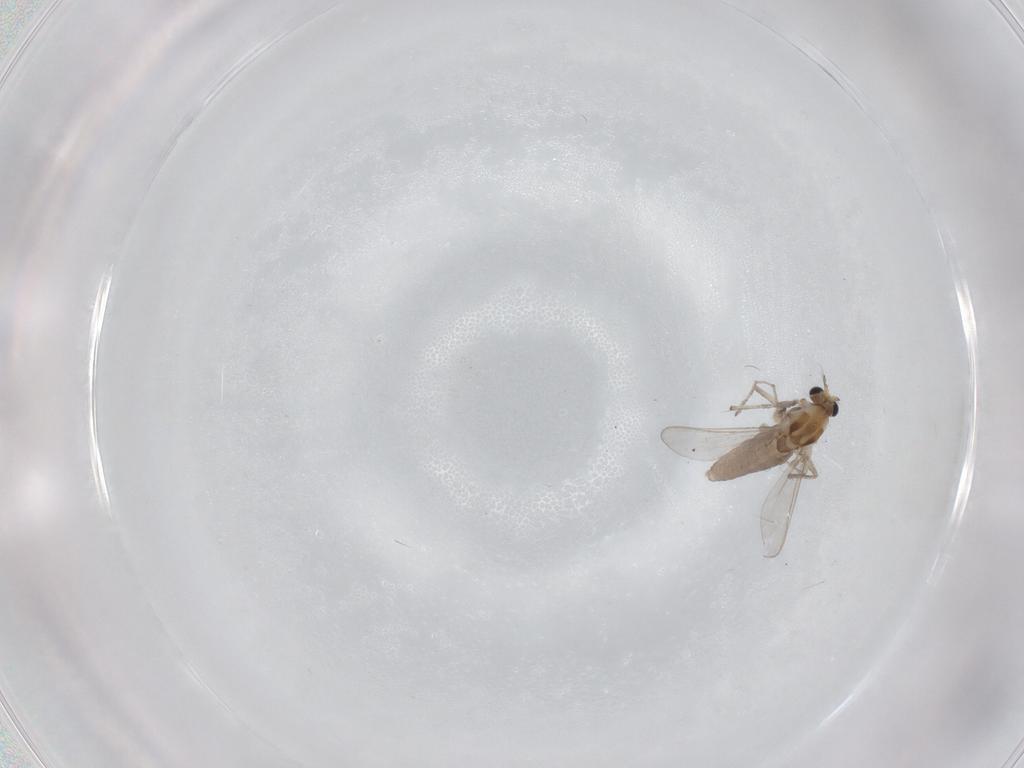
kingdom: Animalia
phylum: Arthropoda
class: Insecta
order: Diptera
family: Chironomidae
